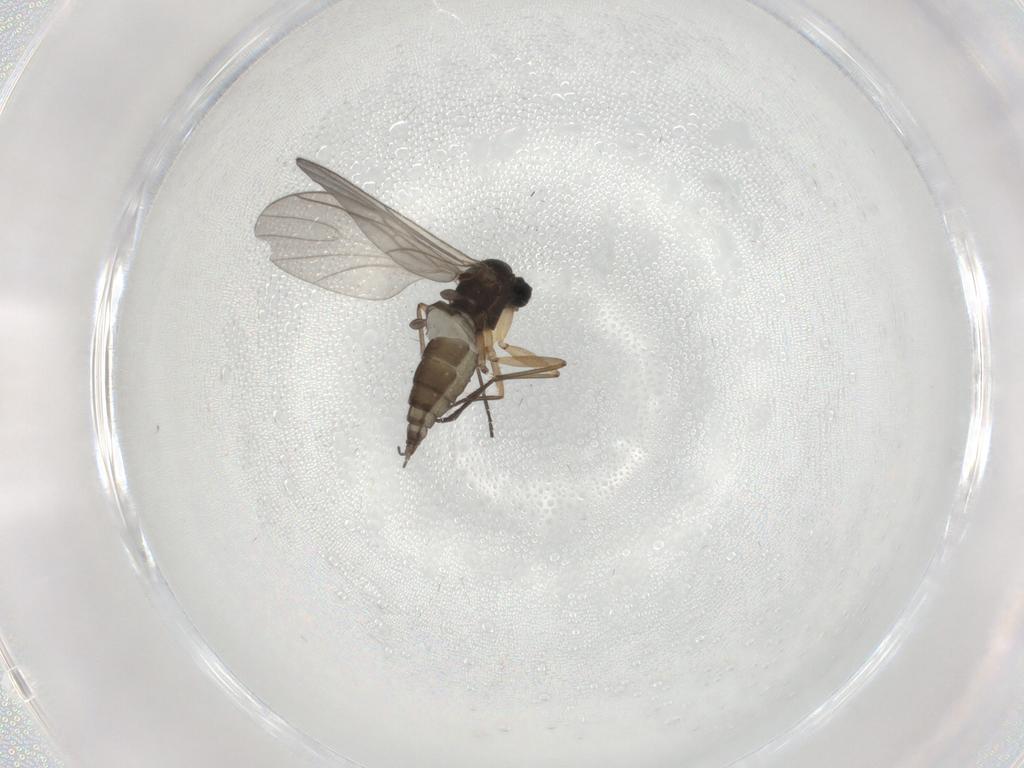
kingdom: Animalia
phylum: Arthropoda
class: Insecta
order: Diptera
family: Sciaridae
